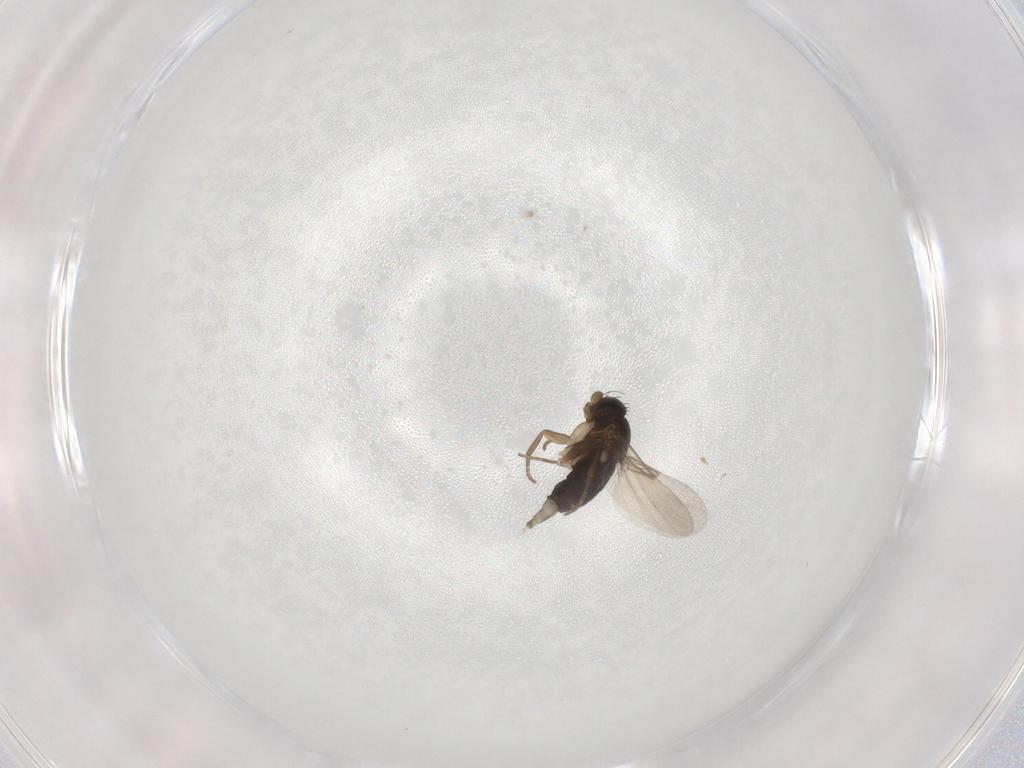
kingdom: Animalia
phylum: Arthropoda
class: Insecta
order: Diptera
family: Phoridae
